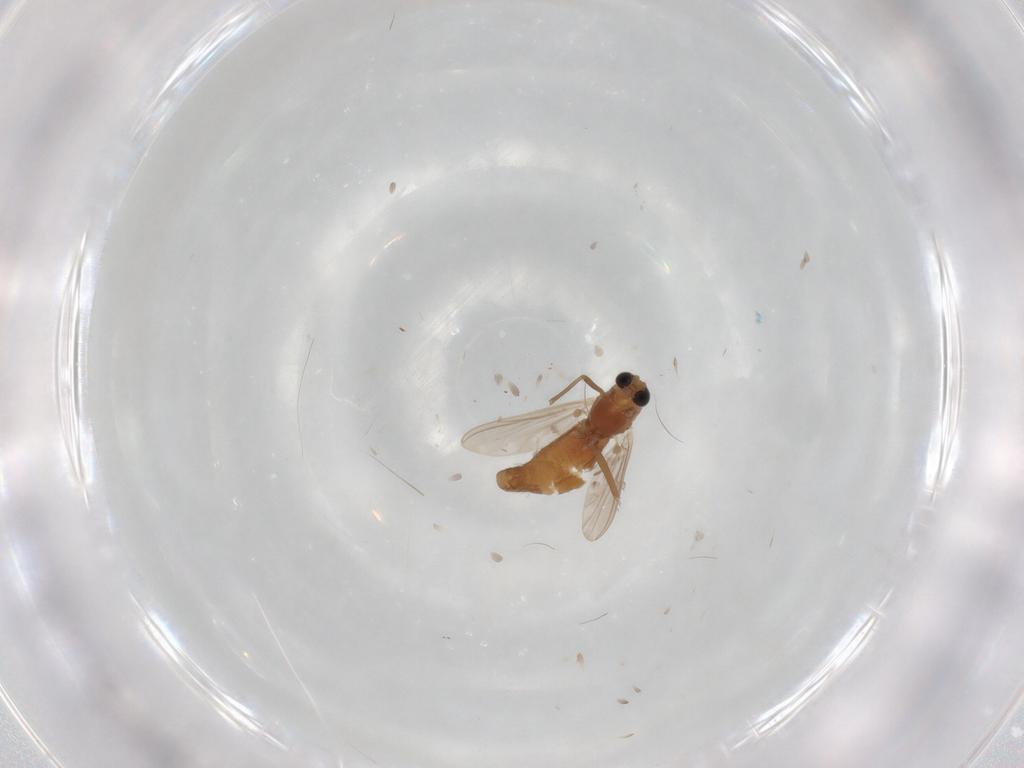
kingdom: Animalia
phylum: Arthropoda
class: Insecta
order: Diptera
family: Chironomidae
